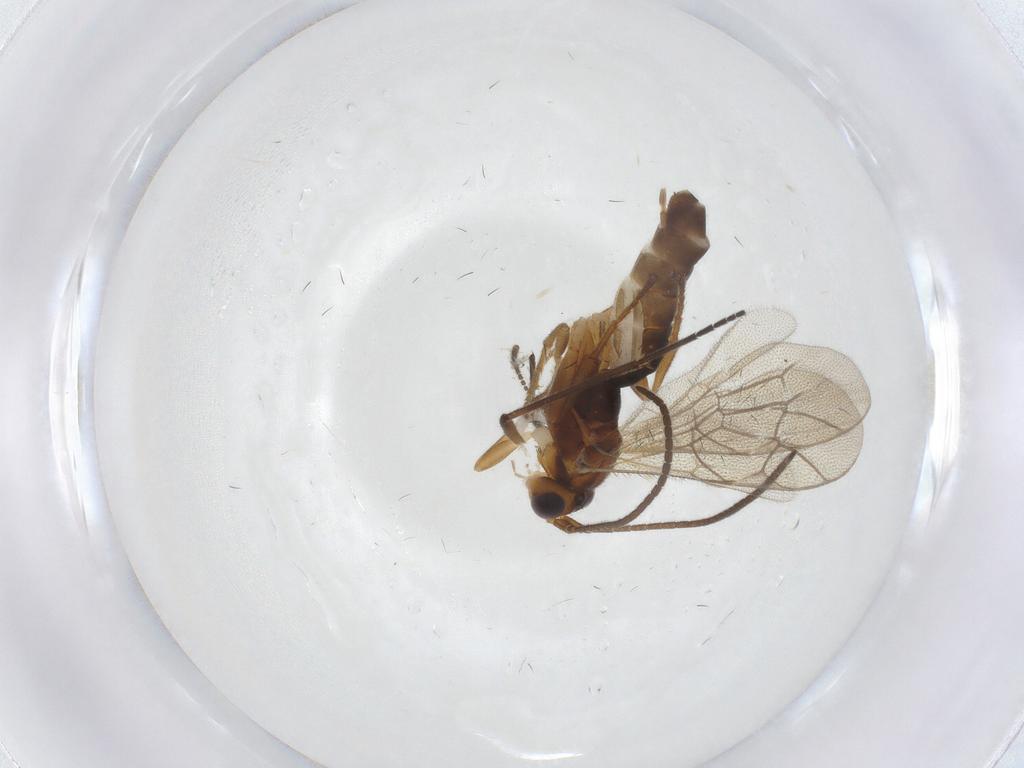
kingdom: Animalia
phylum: Arthropoda
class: Insecta
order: Hymenoptera
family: Ichneumonidae
